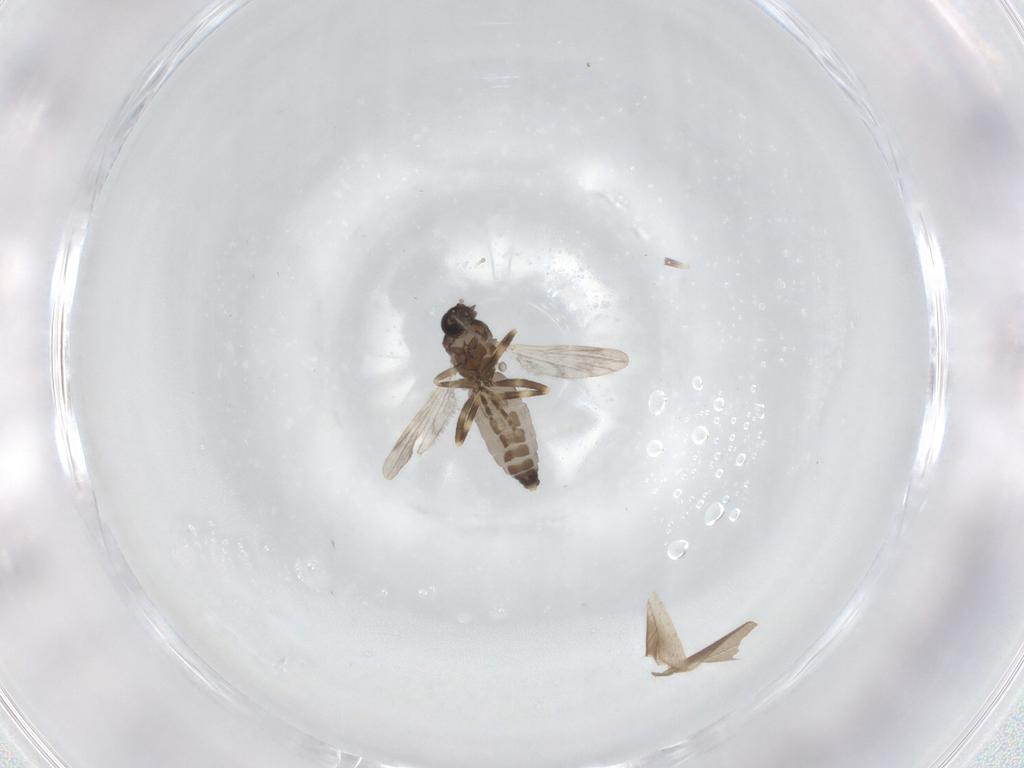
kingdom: Animalia
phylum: Arthropoda
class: Insecta
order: Diptera
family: Ceratopogonidae
